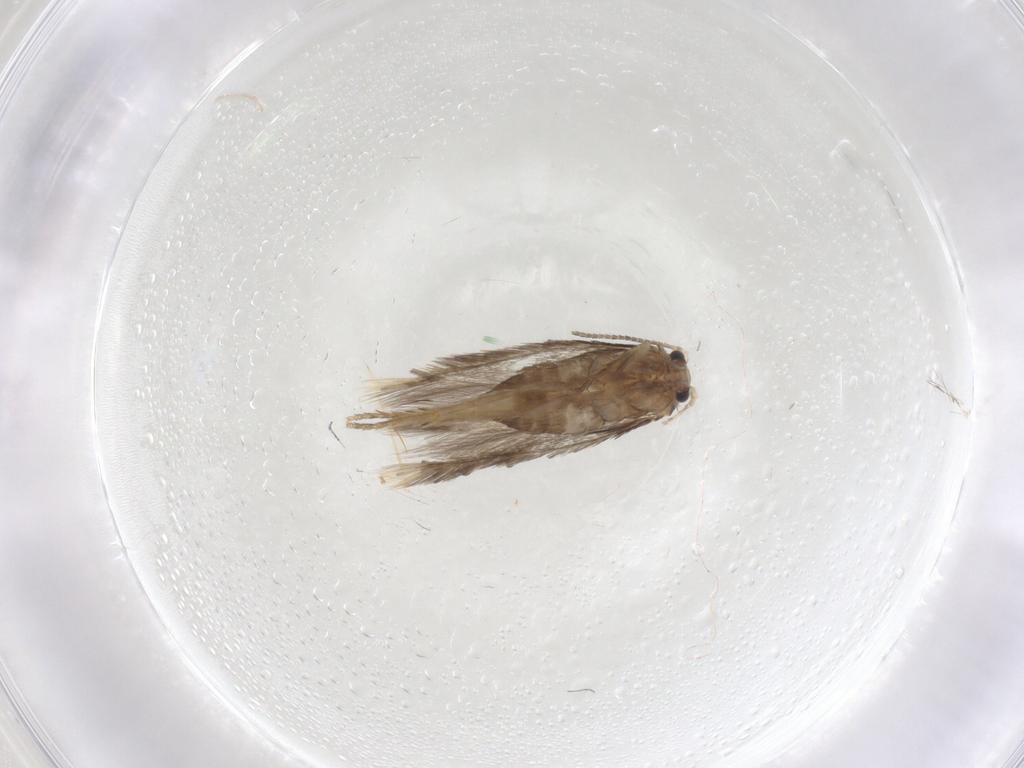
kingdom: Animalia
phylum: Arthropoda
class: Insecta
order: Lepidoptera
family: Nepticulidae
